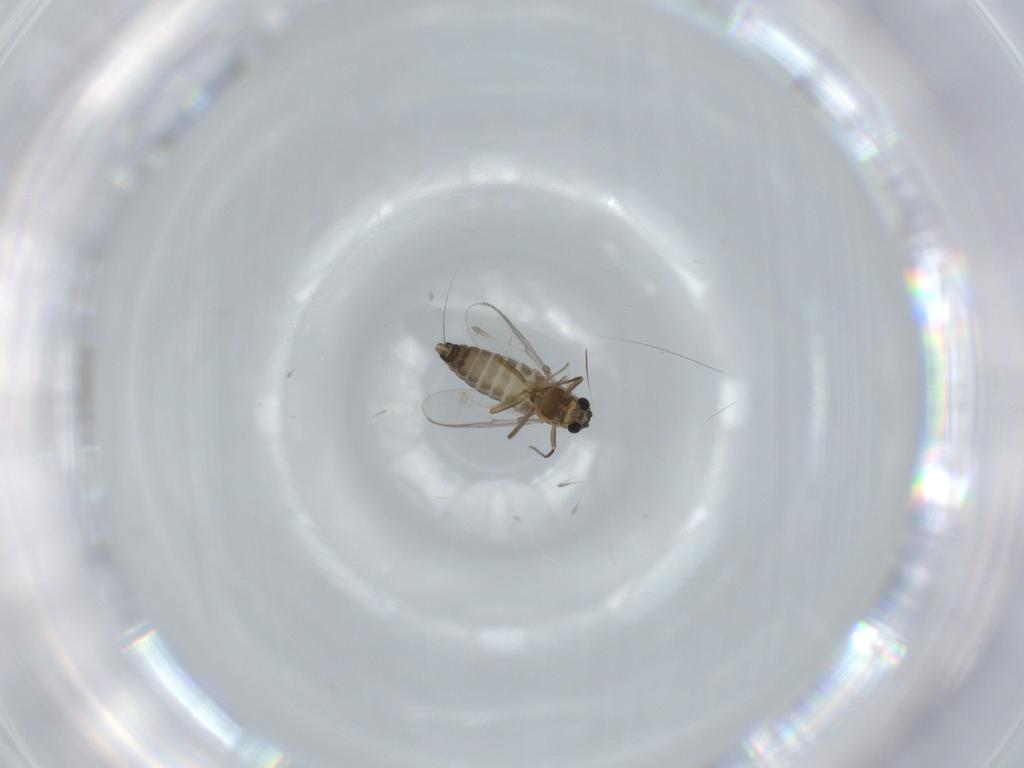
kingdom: Animalia
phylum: Arthropoda
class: Insecta
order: Diptera
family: Chironomidae
